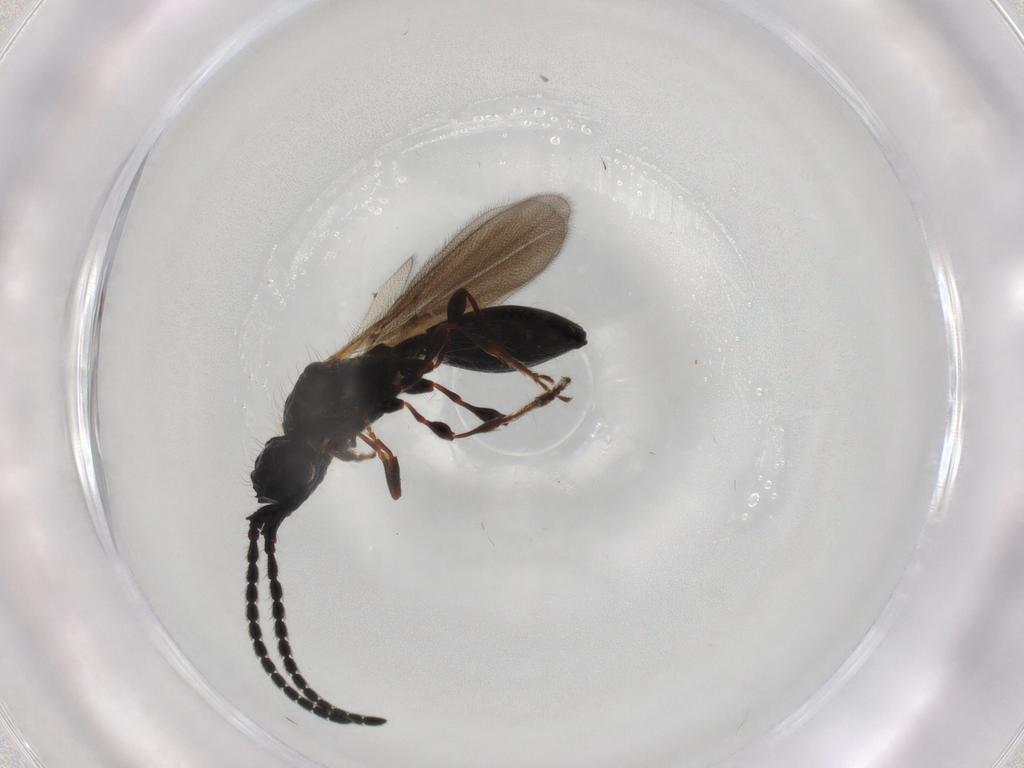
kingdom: Animalia
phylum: Arthropoda
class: Insecta
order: Hymenoptera
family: Diapriidae
